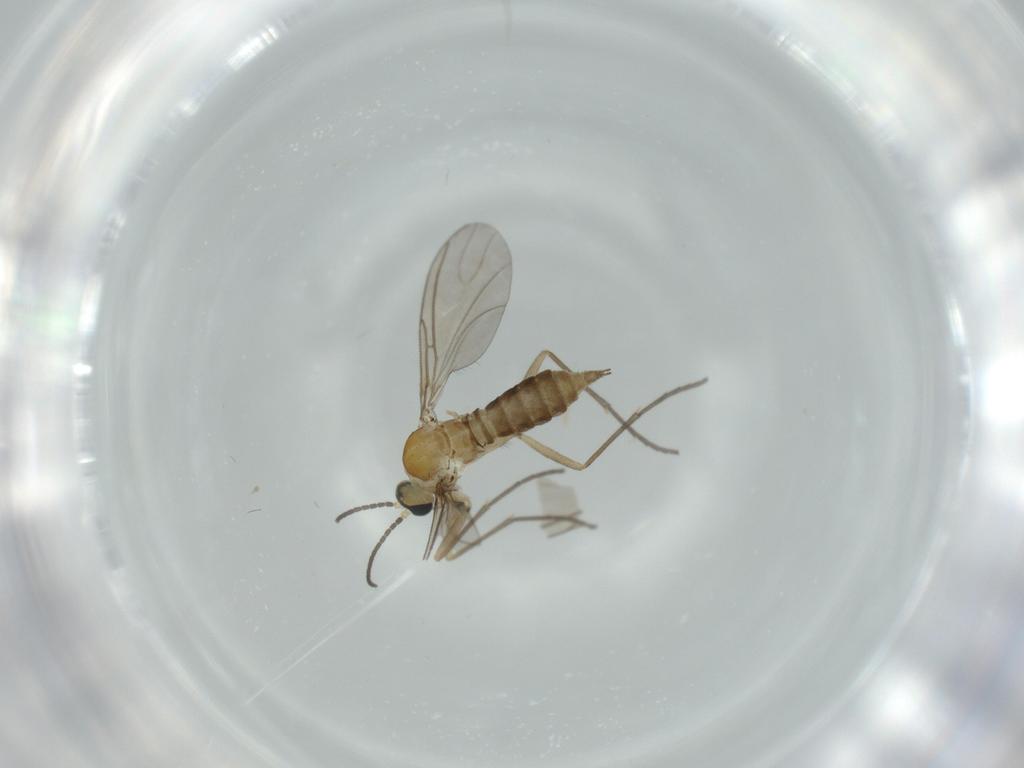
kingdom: Animalia
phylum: Arthropoda
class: Insecta
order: Diptera
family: Sciaridae
